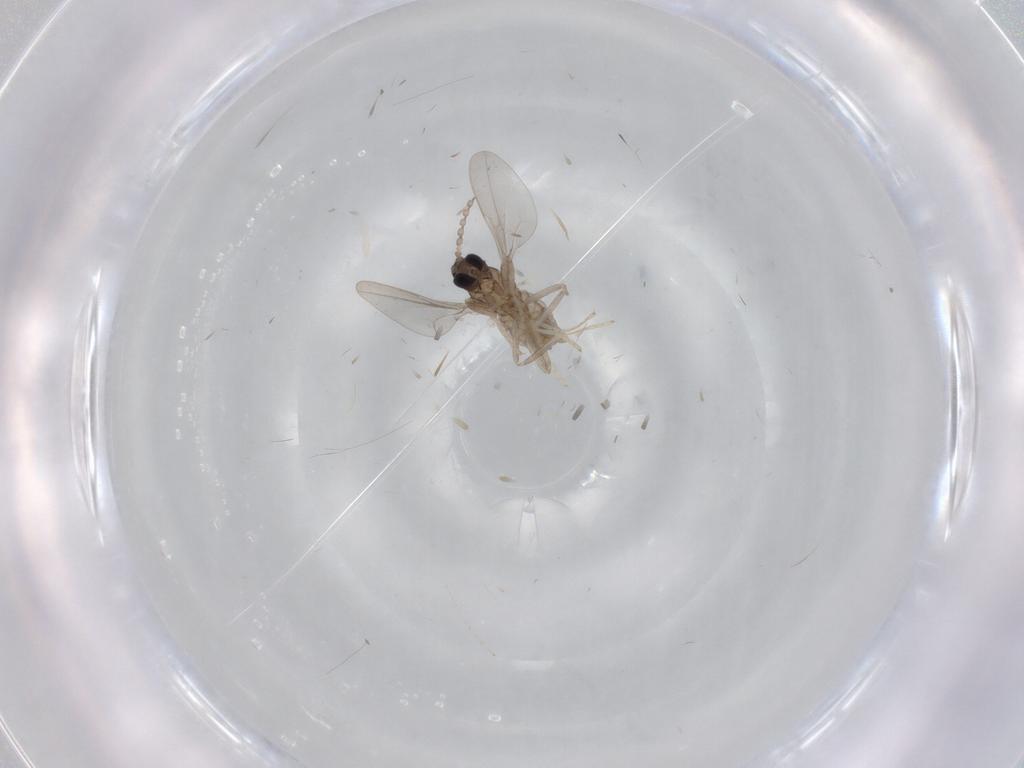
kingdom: Animalia
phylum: Arthropoda
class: Insecta
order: Diptera
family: Cecidomyiidae
